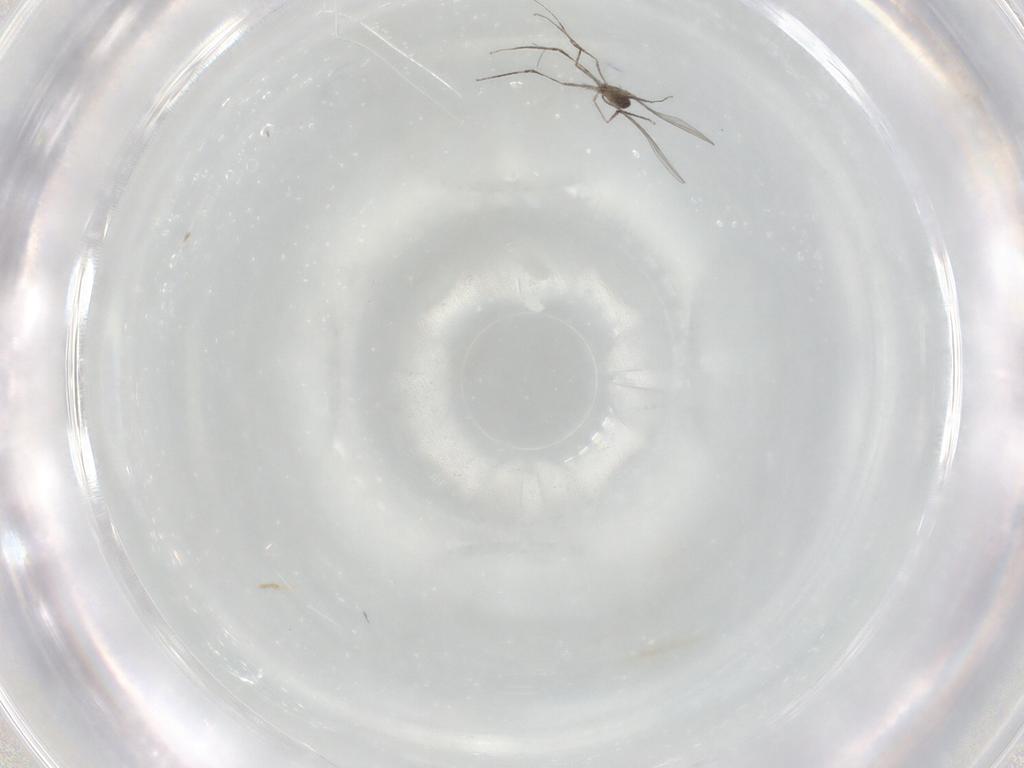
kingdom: Animalia
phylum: Arthropoda
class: Insecta
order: Diptera
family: Cecidomyiidae
